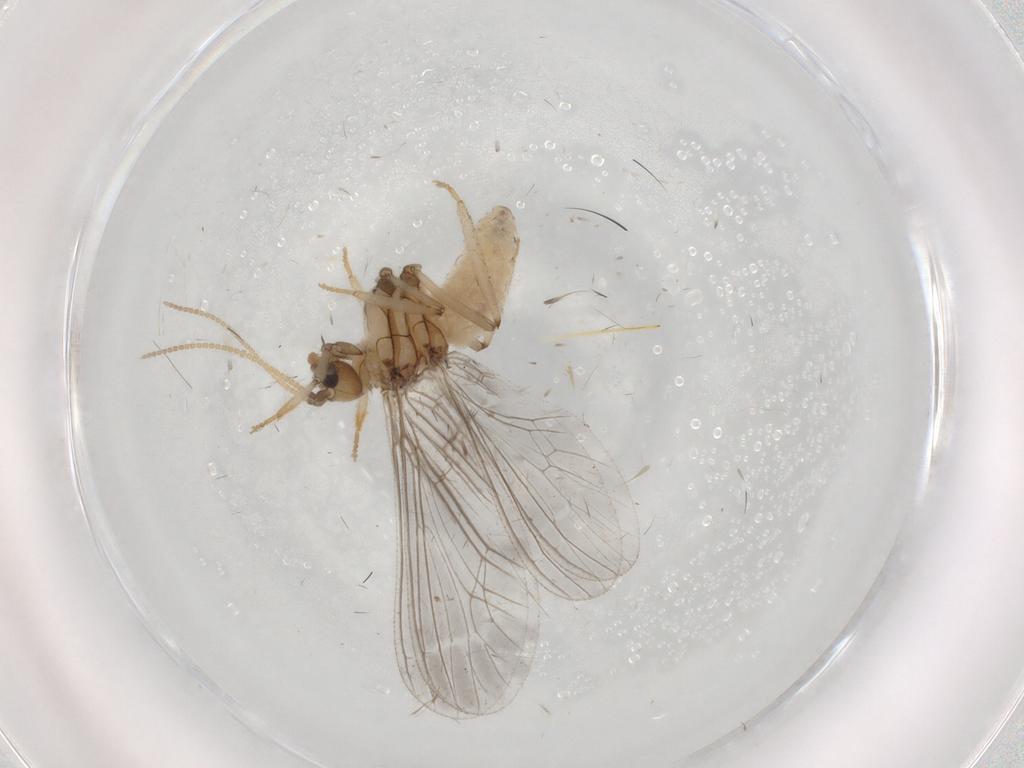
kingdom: Animalia
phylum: Arthropoda
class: Insecta
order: Neuroptera
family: Coniopterygidae
